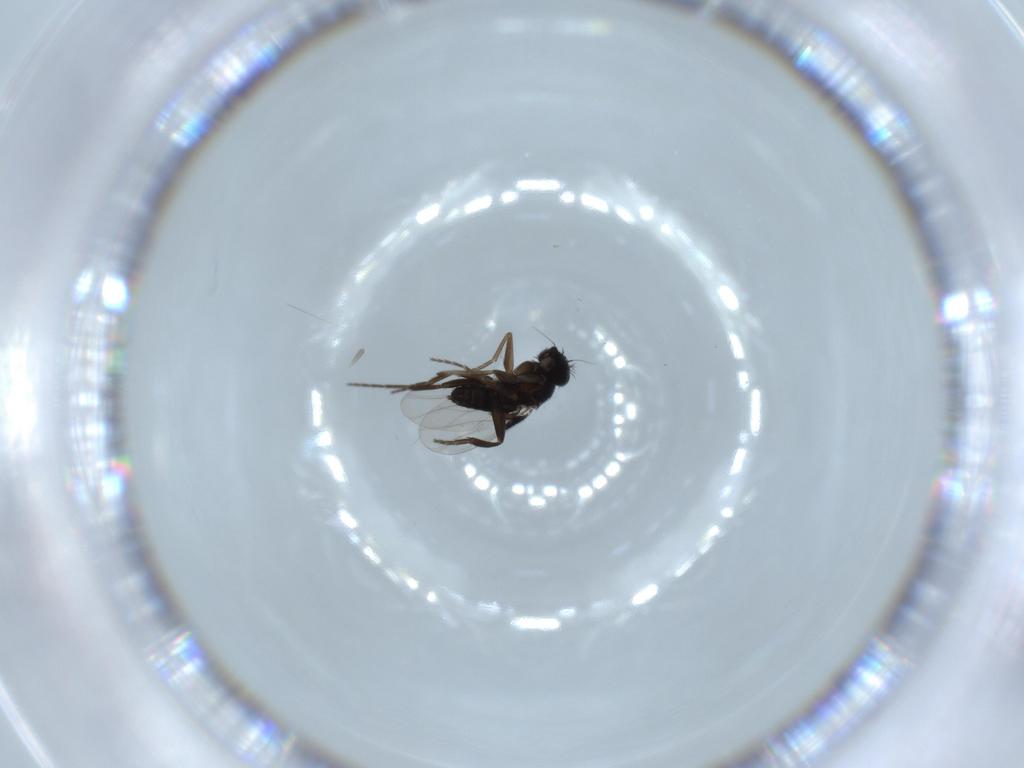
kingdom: Animalia
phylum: Arthropoda
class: Insecta
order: Diptera
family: Phoridae
